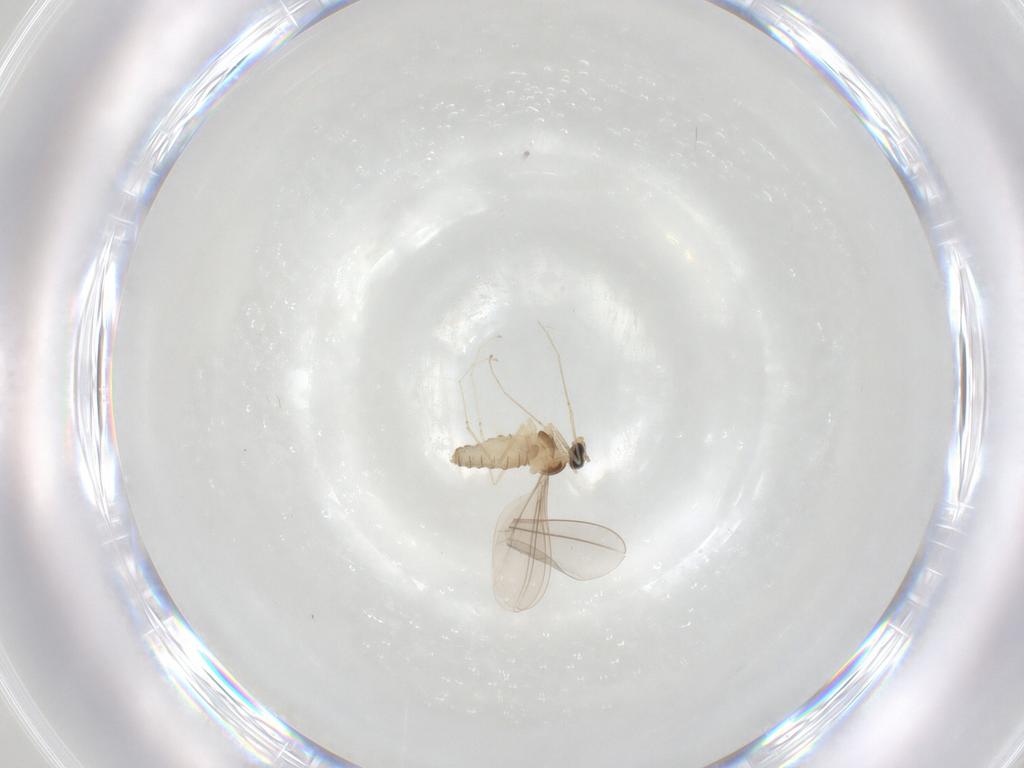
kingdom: Animalia
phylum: Arthropoda
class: Insecta
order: Diptera
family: Cecidomyiidae
